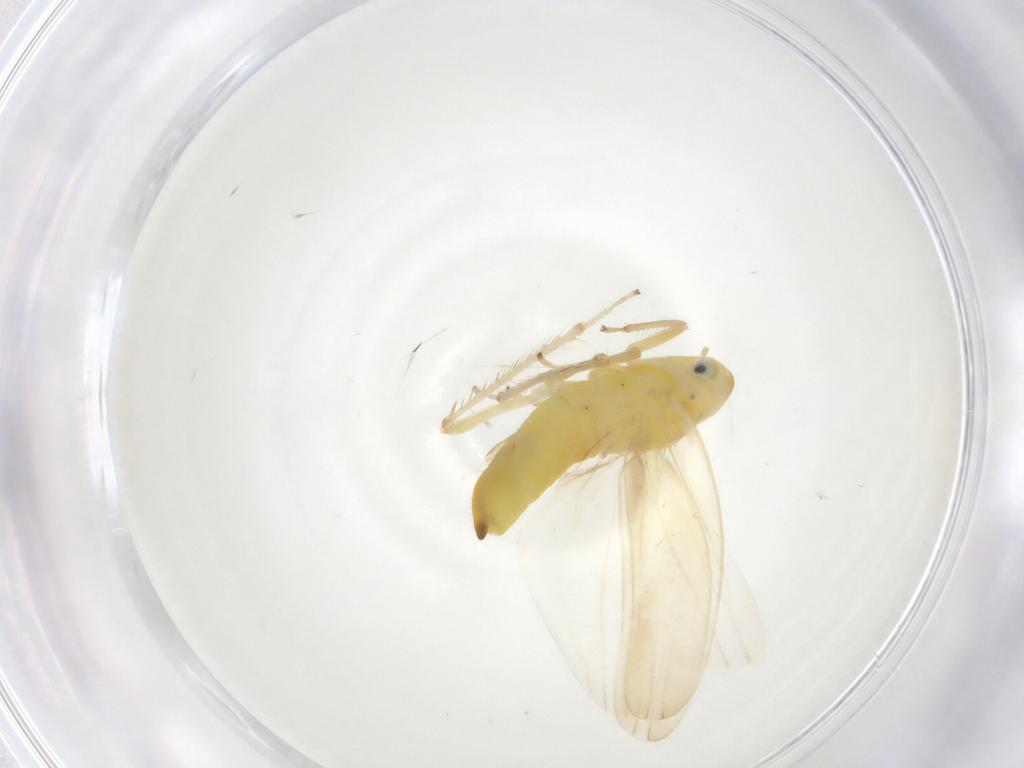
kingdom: Animalia
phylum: Arthropoda
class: Insecta
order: Hemiptera
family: Cicadellidae
